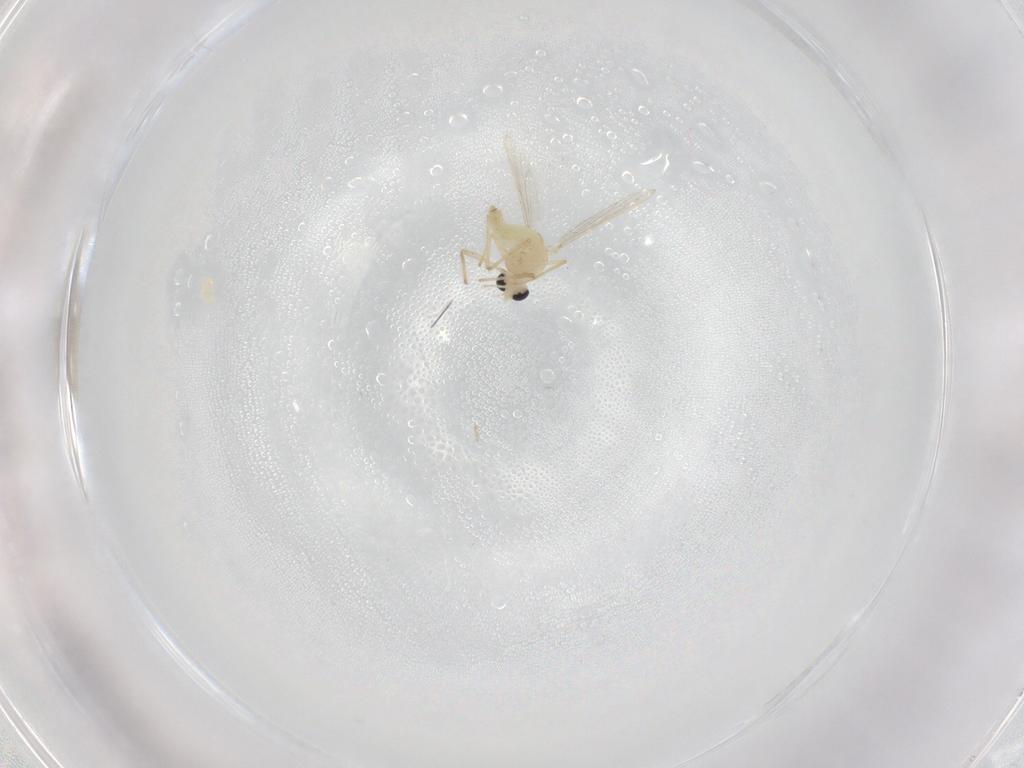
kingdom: Animalia
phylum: Arthropoda
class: Insecta
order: Diptera
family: Chironomidae
